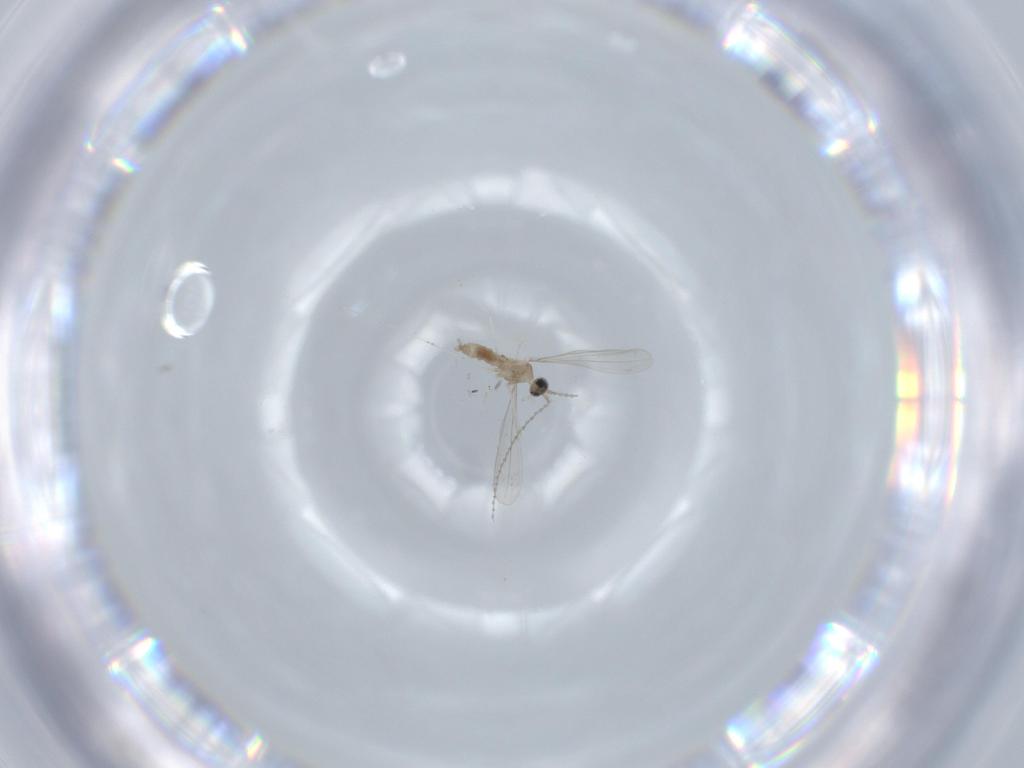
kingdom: Animalia
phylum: Arthropoda
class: Insecta
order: Diptera
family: Cecidomyiidae
